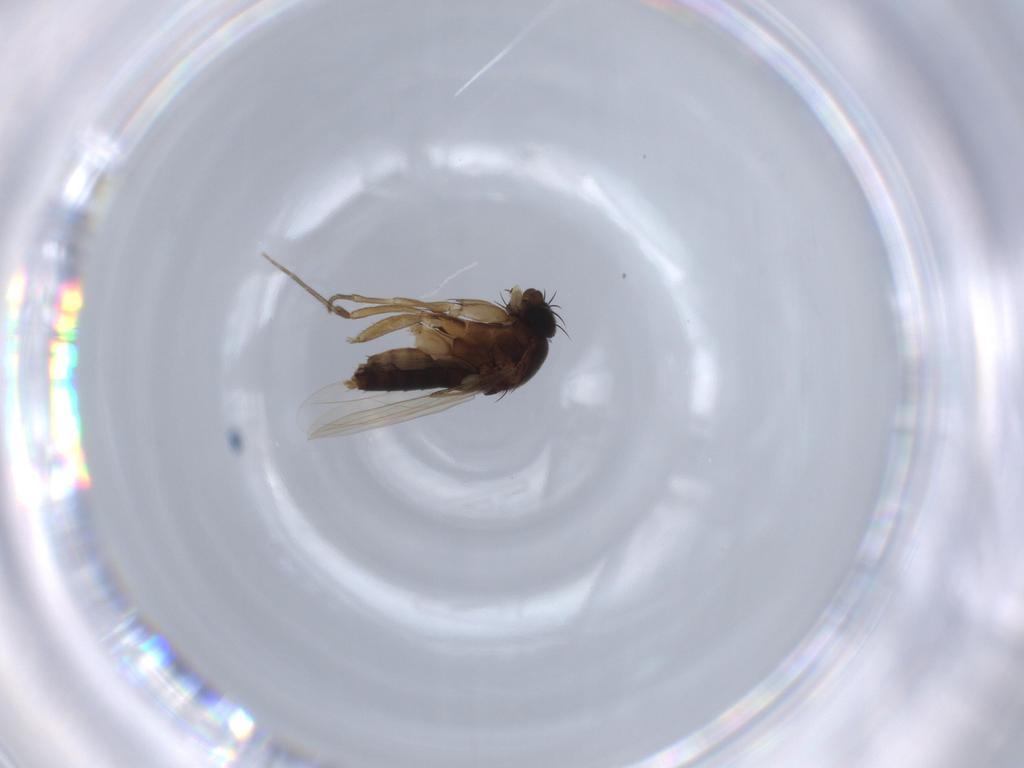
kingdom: Animalia
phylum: Arthropoda
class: Insecta
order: Diptera
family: Phoridae
